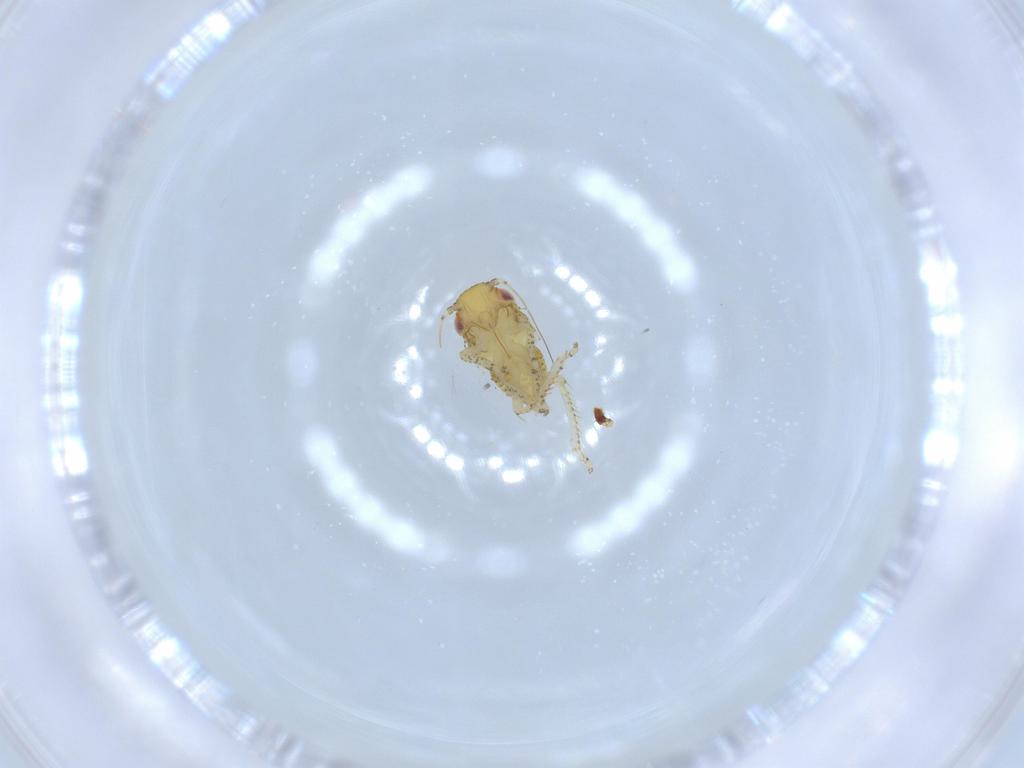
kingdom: Animalia
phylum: Arthropoda
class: Insecta
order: Hemiptera
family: Cicadellidae
